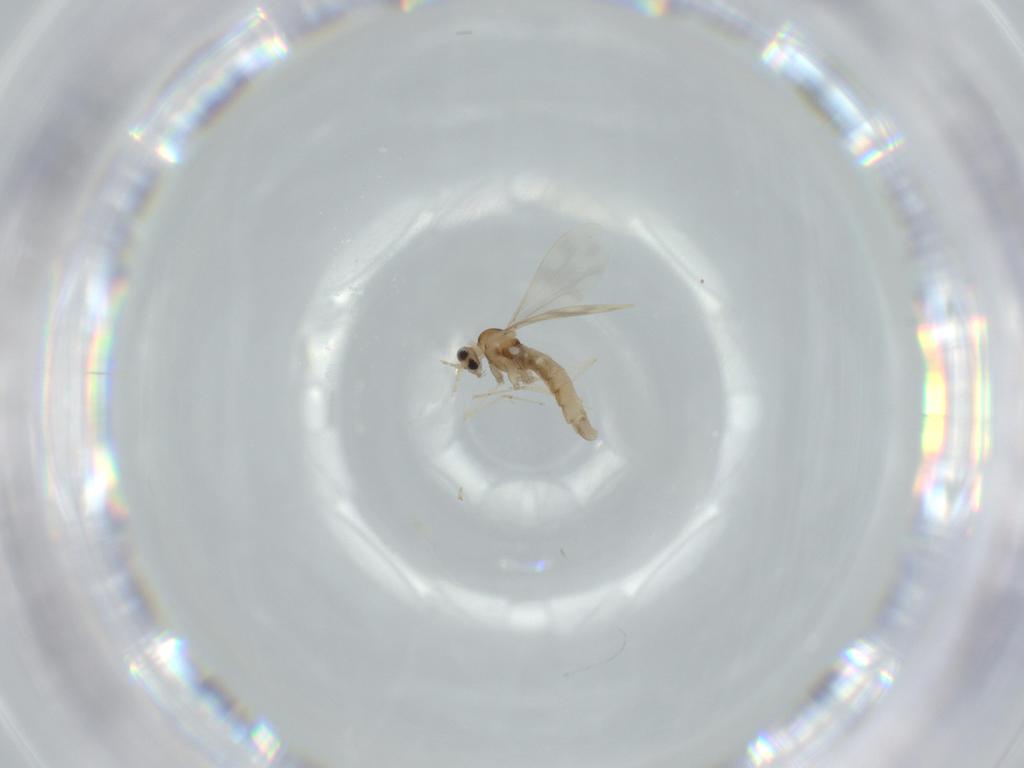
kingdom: Animalia
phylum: Arthropoda
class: Insecta
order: Diptera
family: Cecidomyiidae
